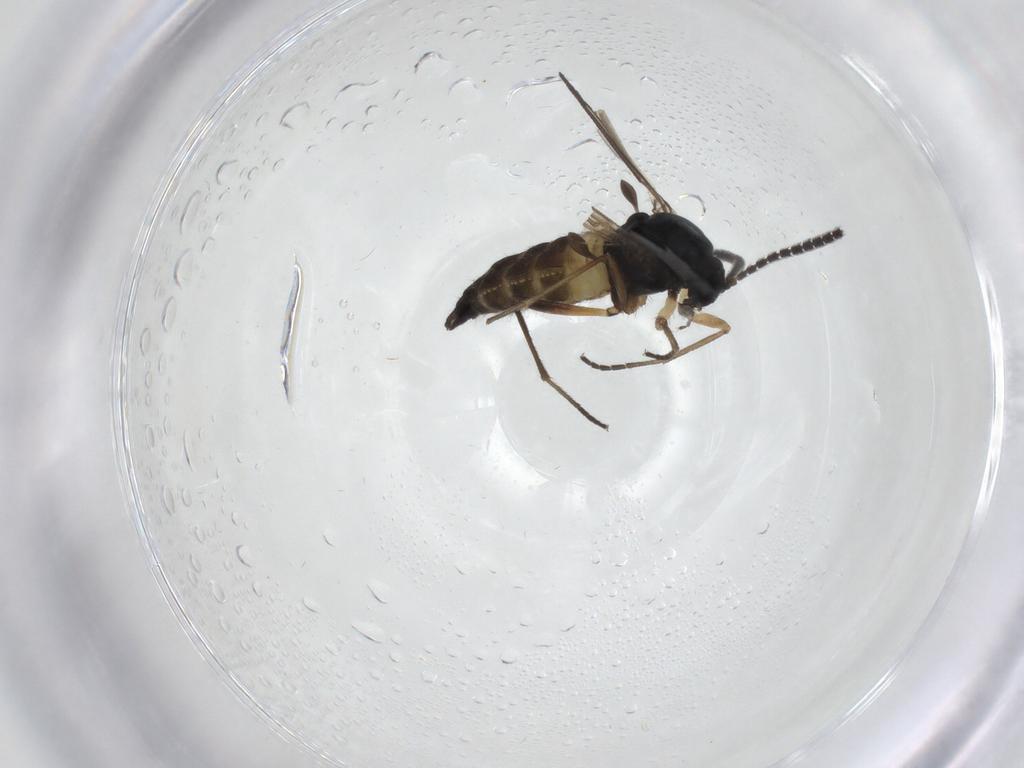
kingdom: Animalia
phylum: Arthropoda
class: Insecta
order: Diptera
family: Sciaridae
